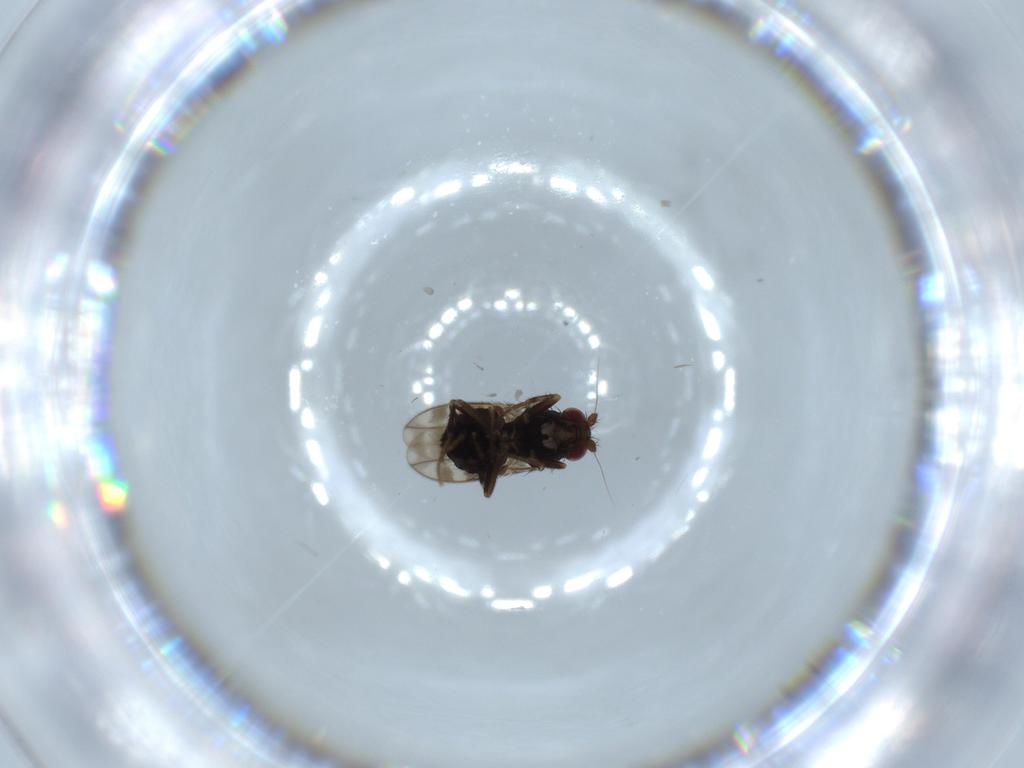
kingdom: Animalia
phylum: Arthropoda
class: Insecta
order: Diptera
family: Sphaeroceridae
